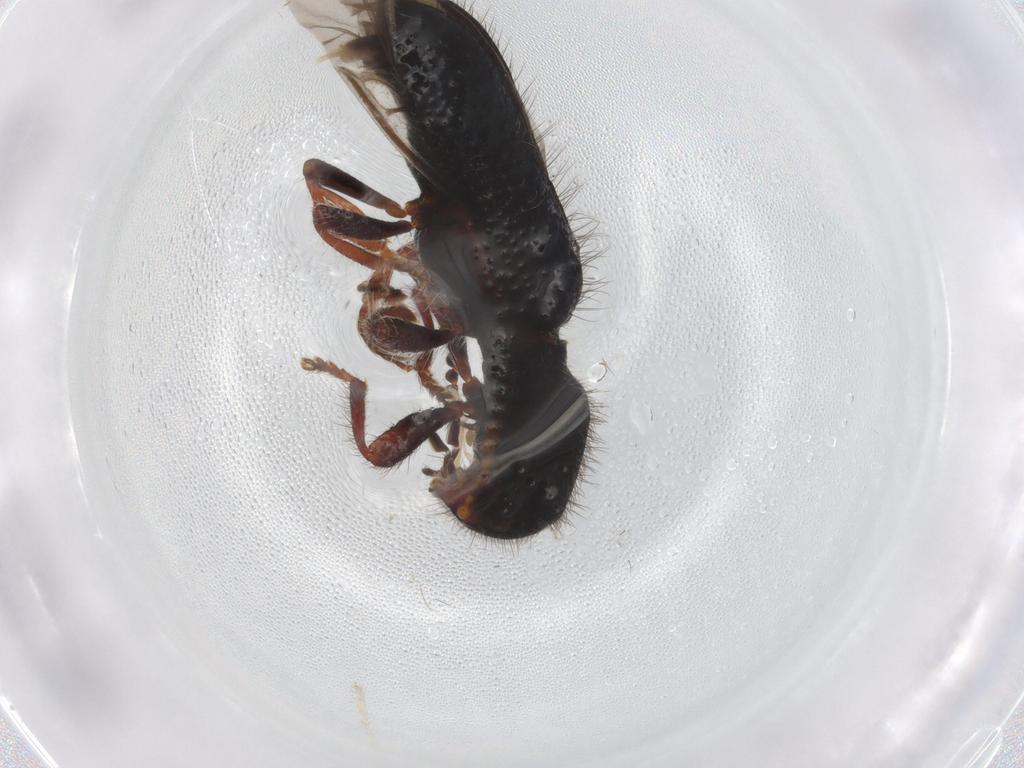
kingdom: Animalia
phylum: Arthropoda
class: Insecta
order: Coleoptera
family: Cleridae
